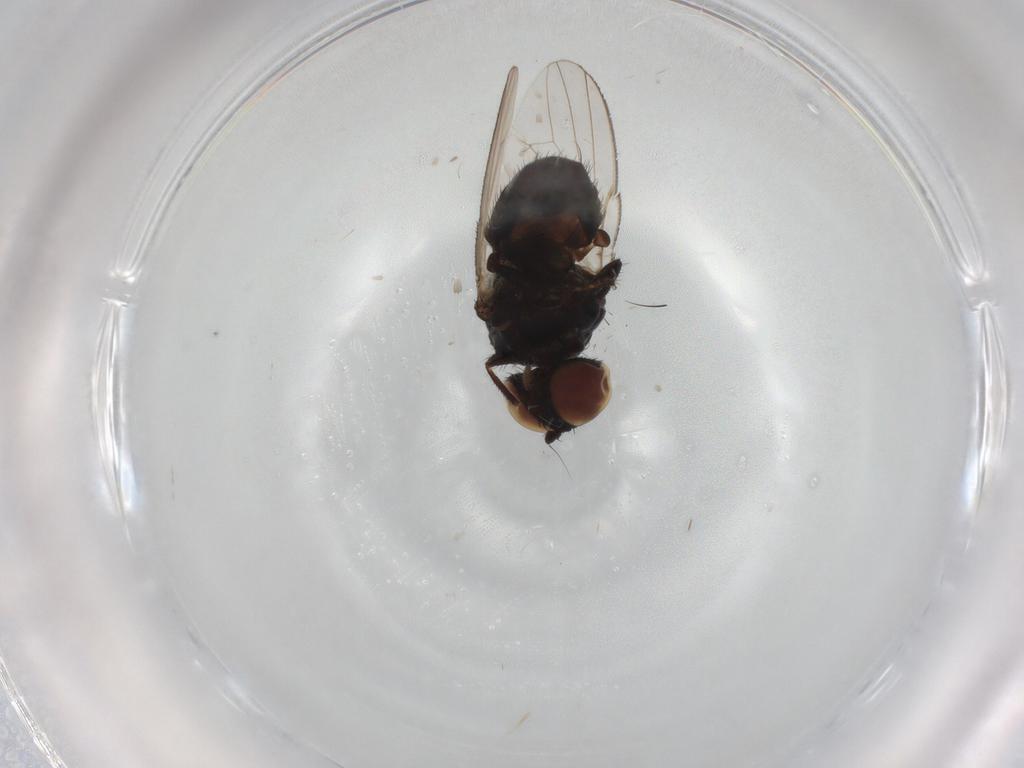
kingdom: Animalia
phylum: Arthropoda
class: Insecta
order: Diptera
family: Milichiidae
